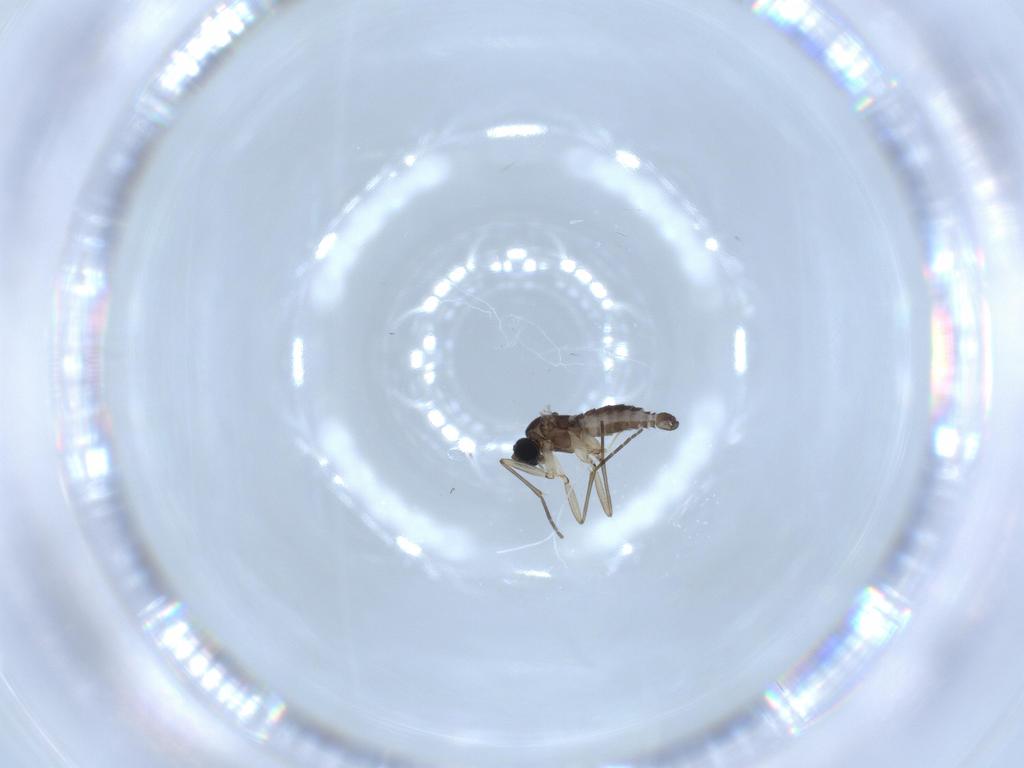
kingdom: Animalia
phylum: Arthropoda
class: Insecta
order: Diptera
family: Sciaridae
